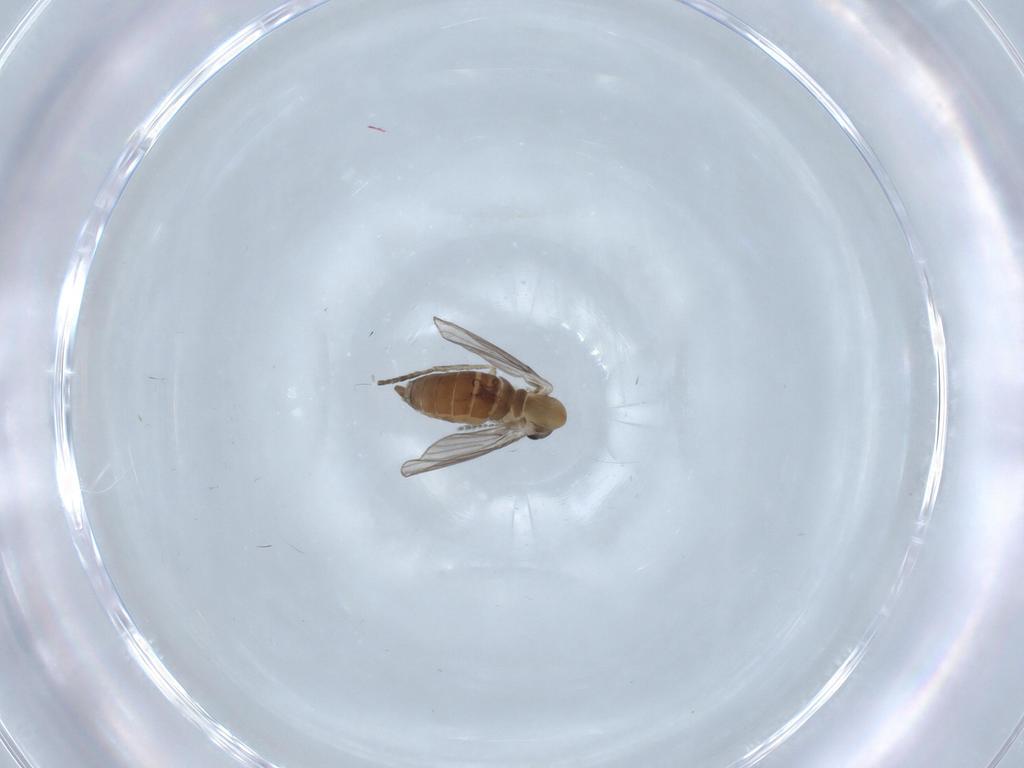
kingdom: Animalia
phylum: Arthropoda
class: Insecta
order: Diptera
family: Psychodidae
